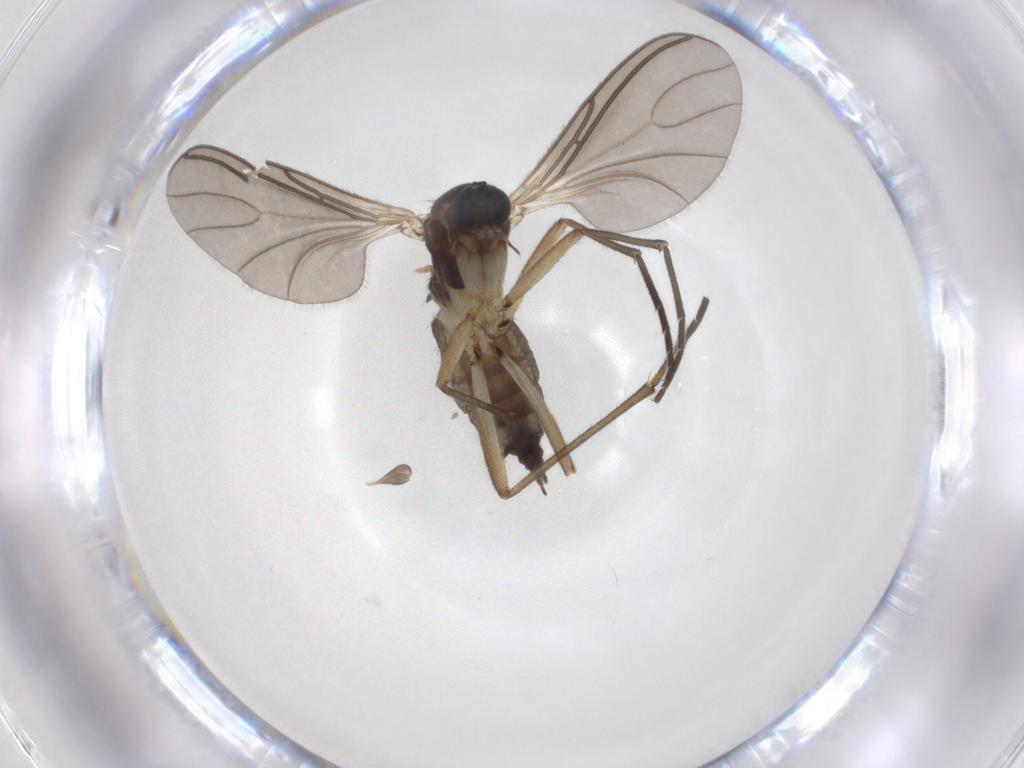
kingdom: Animalia
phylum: Arthropoda
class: Insecta
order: Diptera
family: Sciaridae
